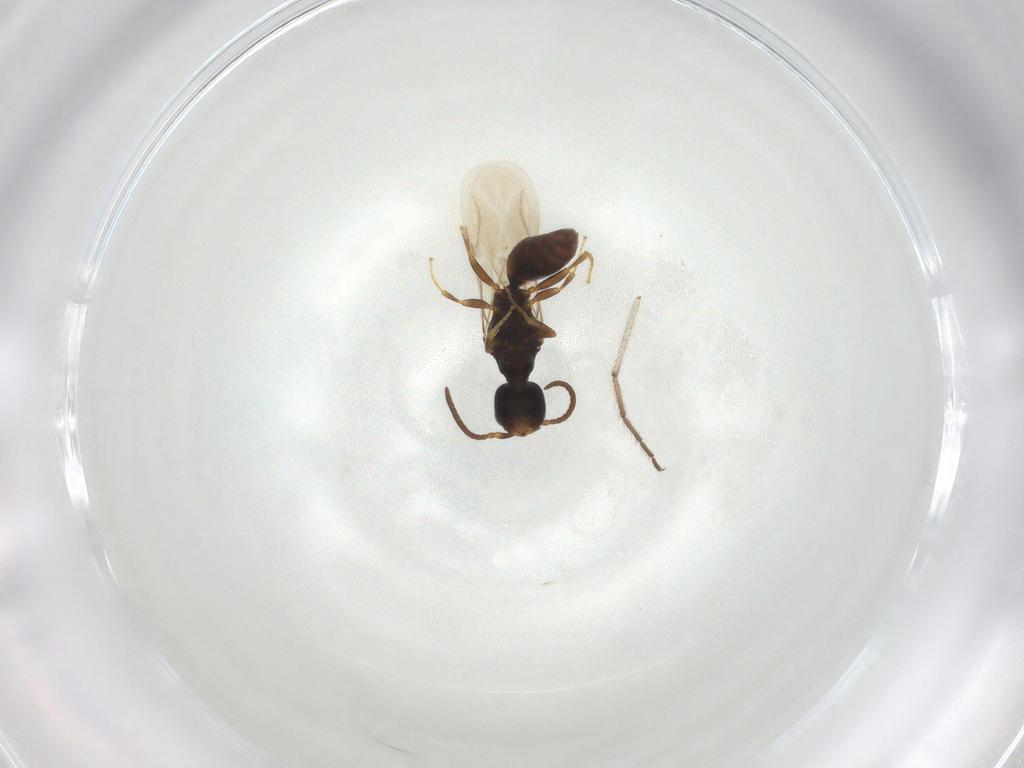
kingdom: Animalia
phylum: Arthropoda
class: Insecta
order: Hymenoptera
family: Bethylidae
